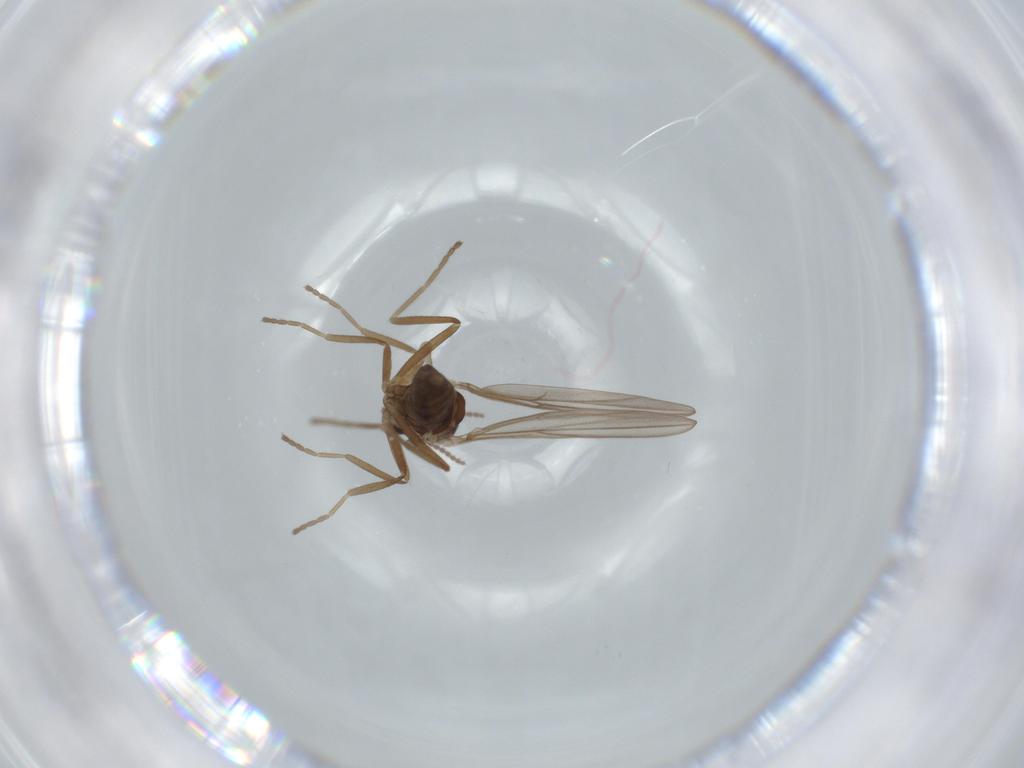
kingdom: Animalia
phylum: Arthropoda
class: Insecta
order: Diptera
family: Cecidomyiidae
